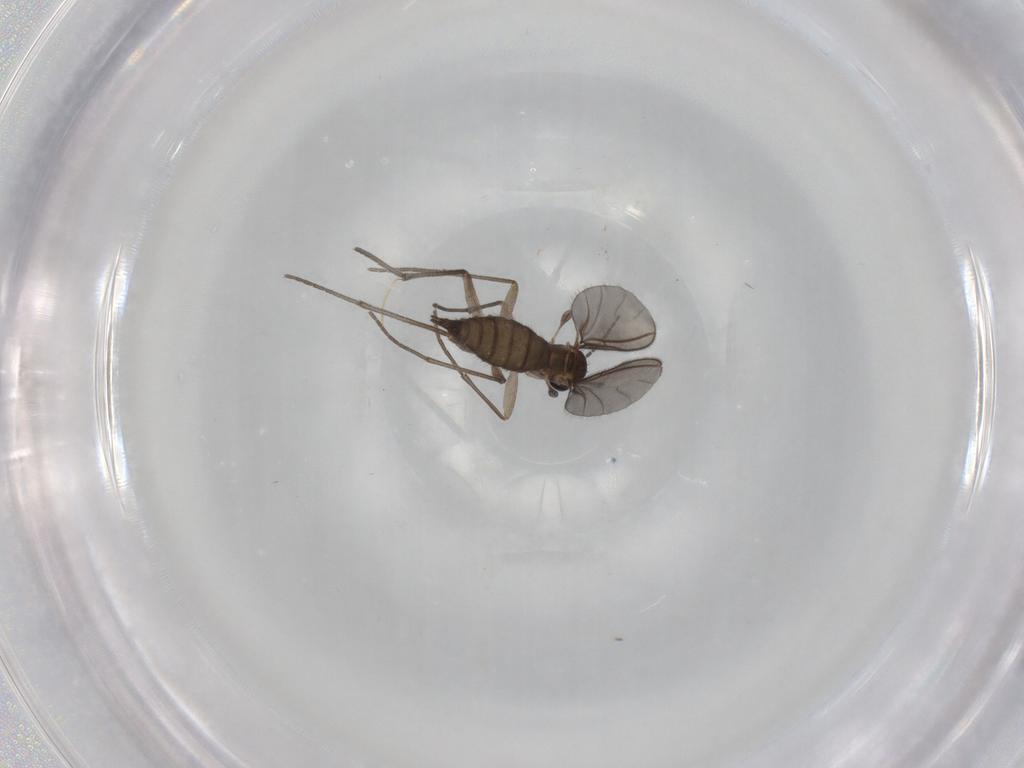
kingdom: Animalia
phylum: Arthropoda
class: Insecta
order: Diptera
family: Sciaridae
